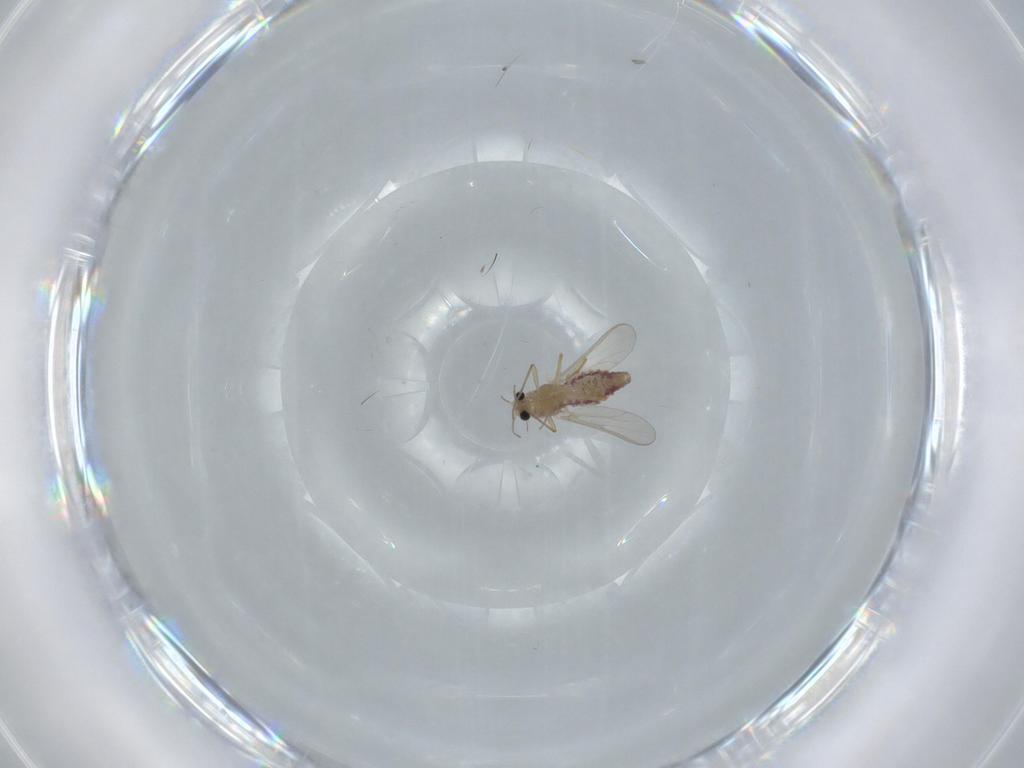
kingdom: Animalia
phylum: Arthropoda
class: Insecta
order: Diptera
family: Chironomidae
